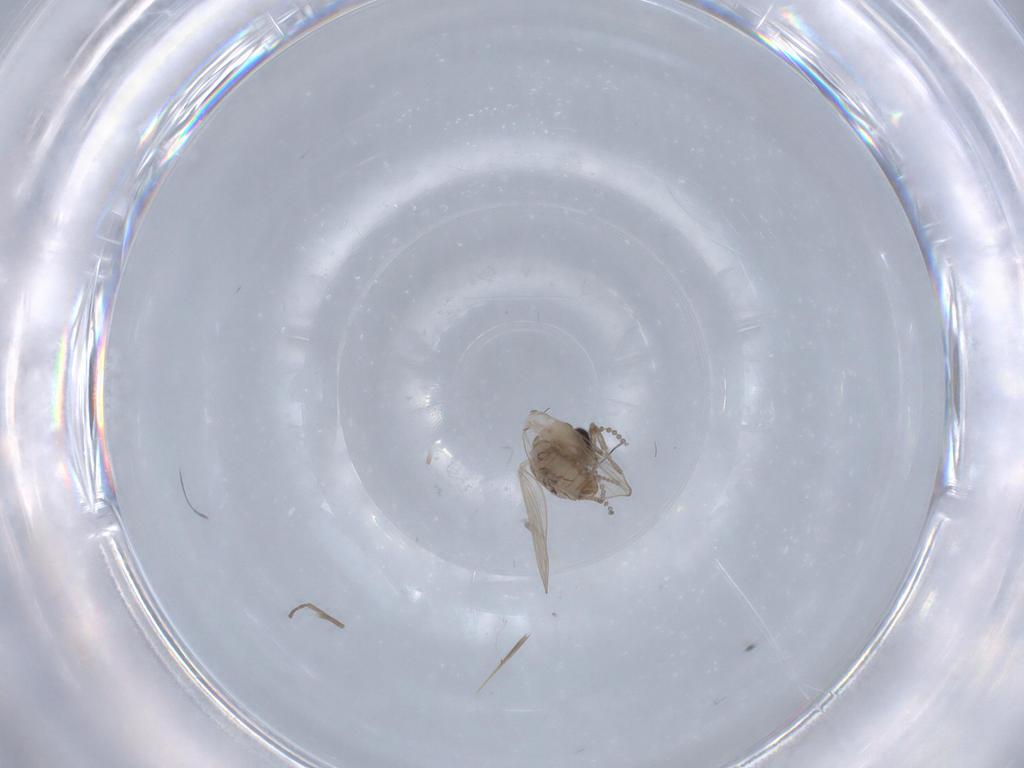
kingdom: Animalia
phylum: Arthropoda
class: Insecta
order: Diptera
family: Psychodidae
